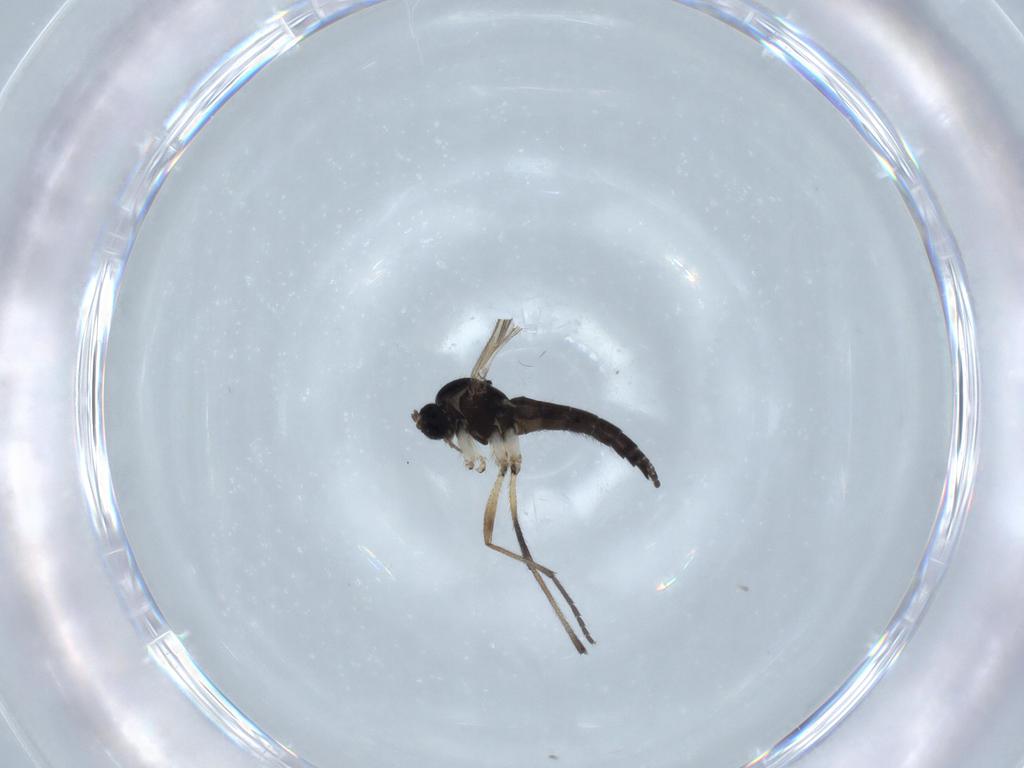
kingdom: Animalia
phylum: Arthropoda
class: Insecta
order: Diptera
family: Sciaridae
